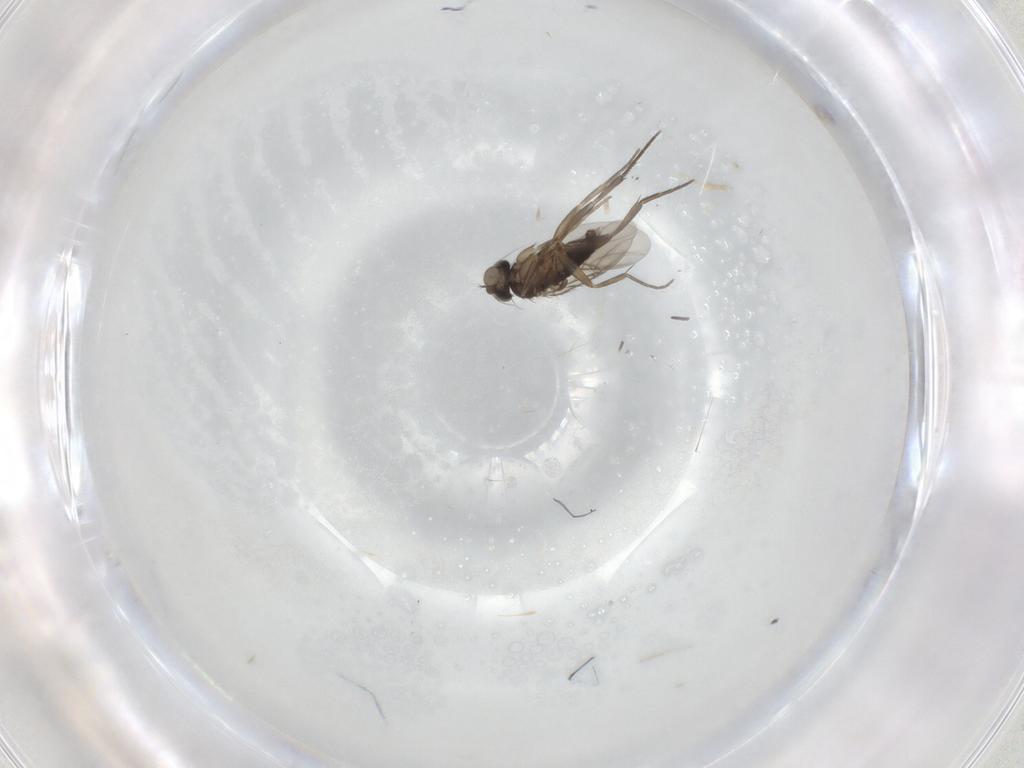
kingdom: Animalia
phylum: Arthropoda
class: Insecta
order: Diptera
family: Phoridae
